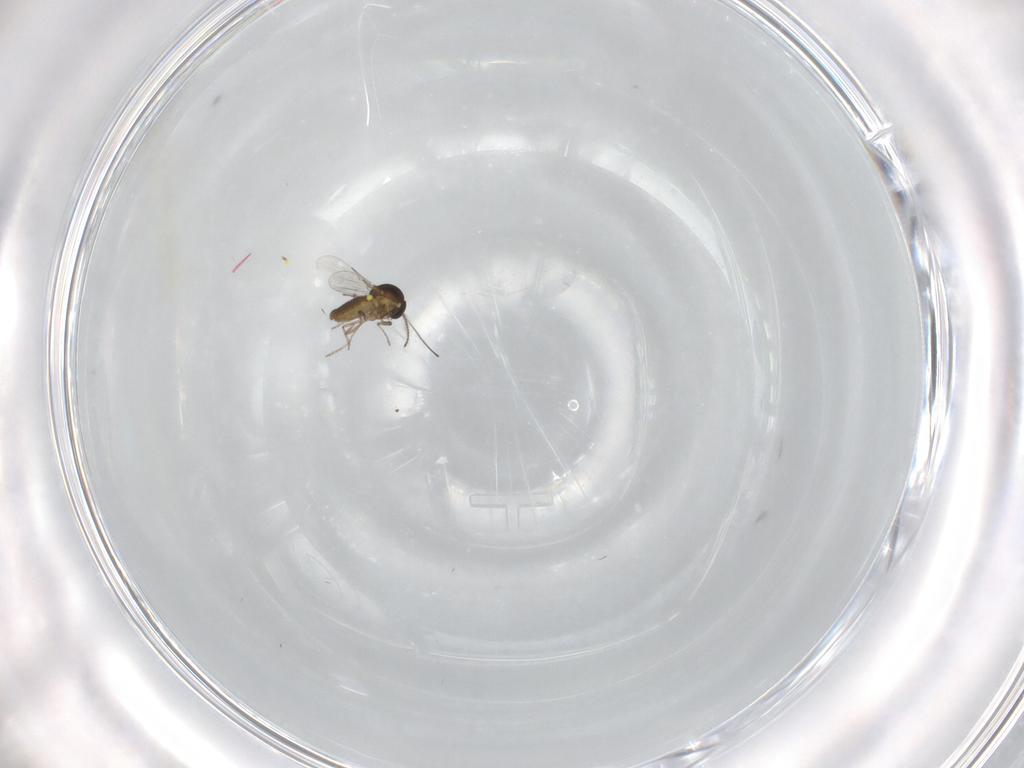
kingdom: Animalia
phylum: Arthropoda
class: Insecta
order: Diptera
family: Ceratopogonidae
